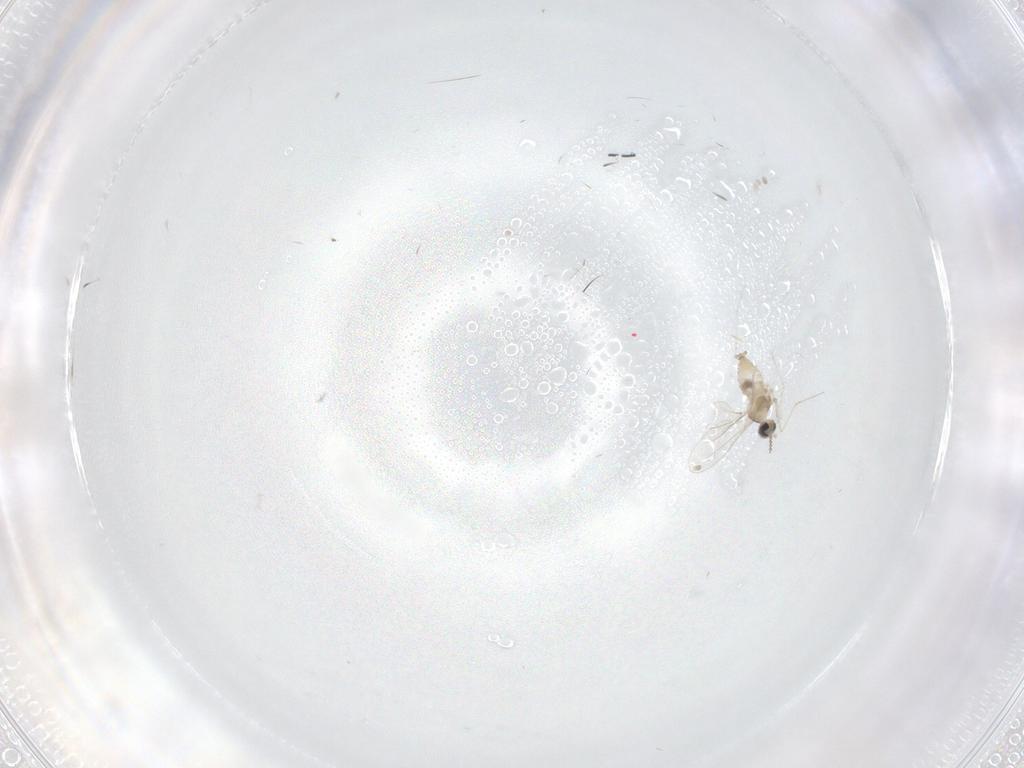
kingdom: Animalia
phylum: Arthropoda
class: Insecta
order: Diptera
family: Cecidomyiidae
